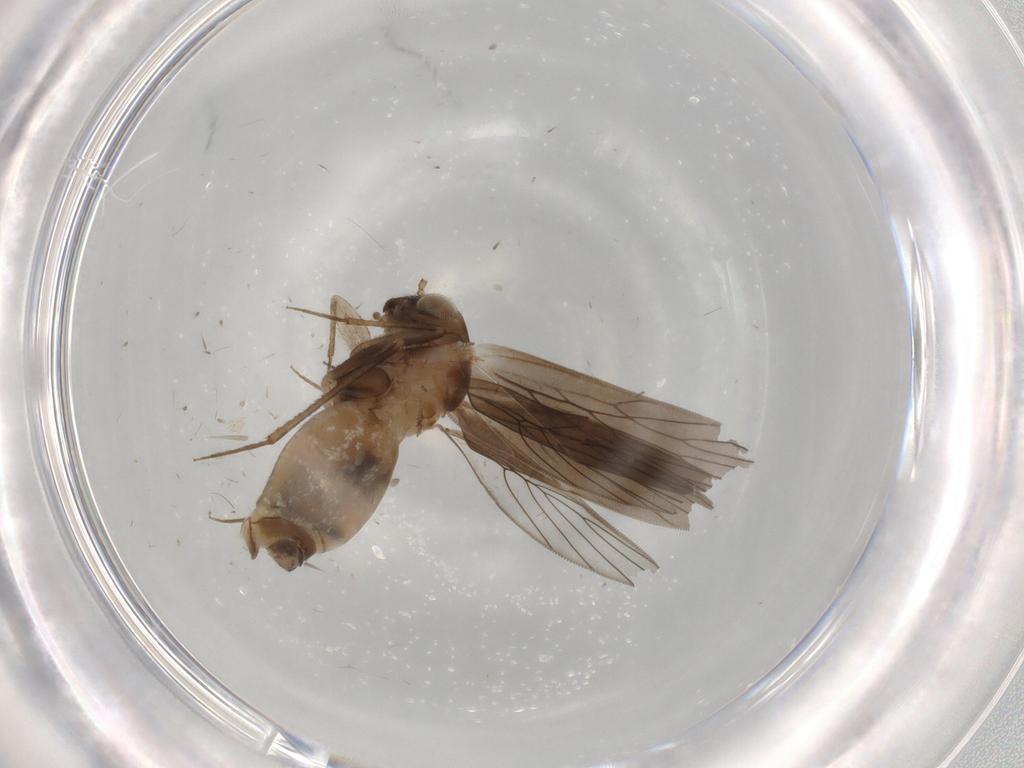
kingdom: Animalia
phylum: Arthropoda
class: Insecta
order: Psocodea
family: Lepidopsocidae
